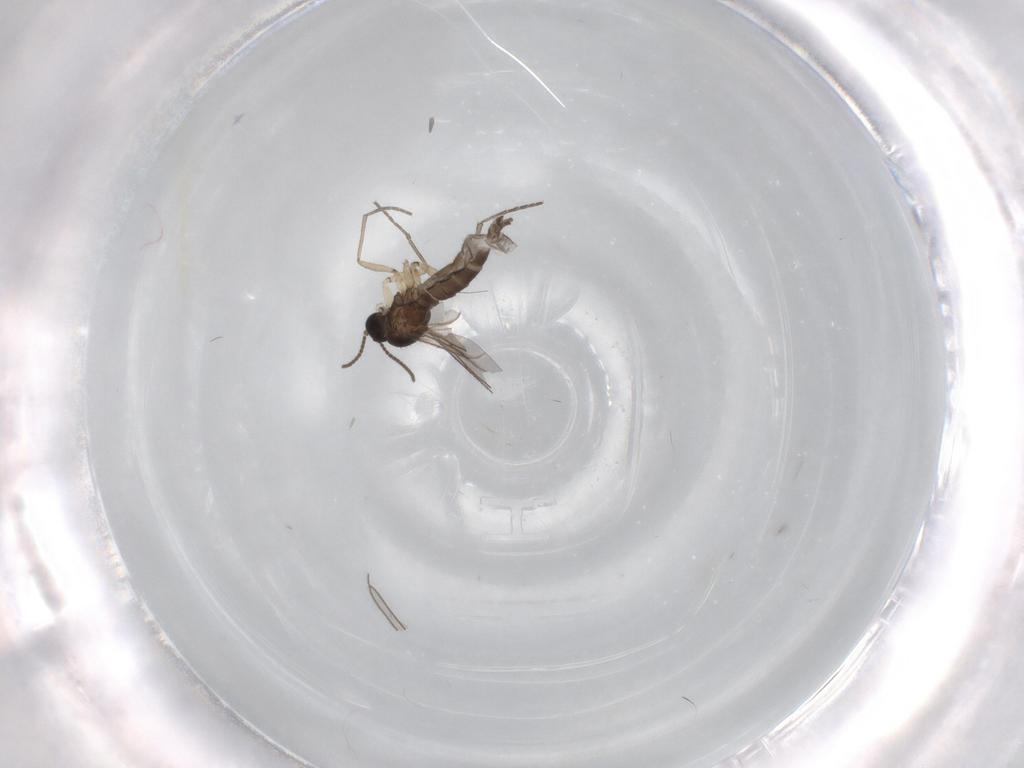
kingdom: Animalia
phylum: Arthropoda
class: Insecta
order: Diptera
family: Sciaridae
